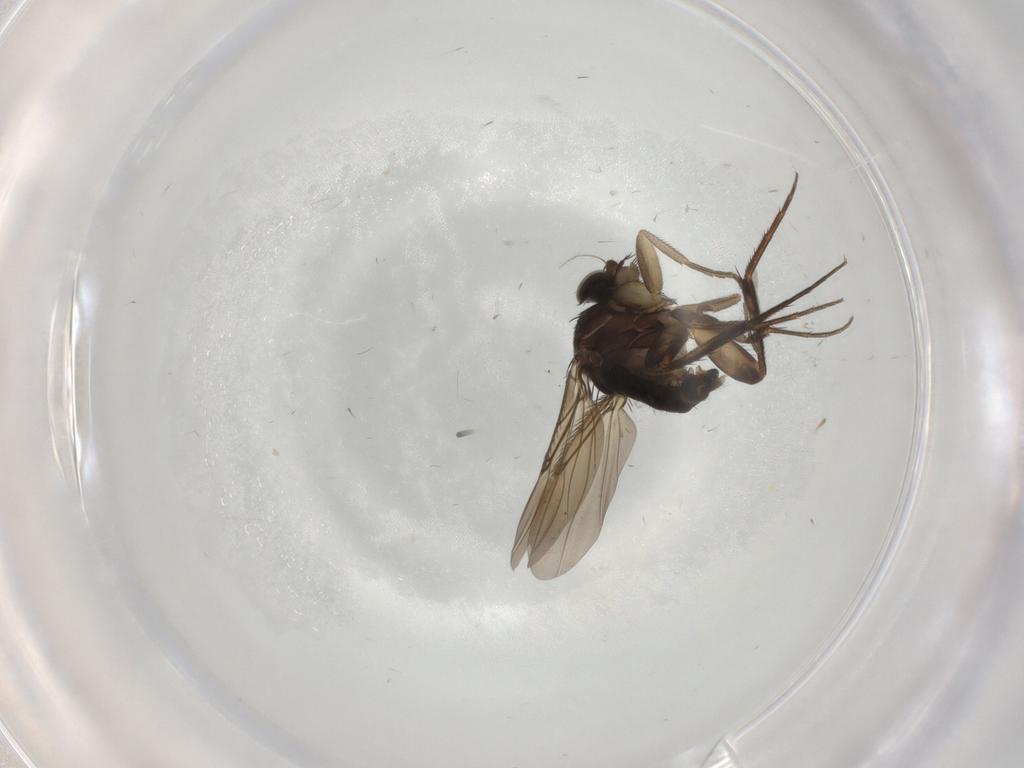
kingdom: Animalia
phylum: Arthropoda
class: Insecta
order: Diptera
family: Phoridae
